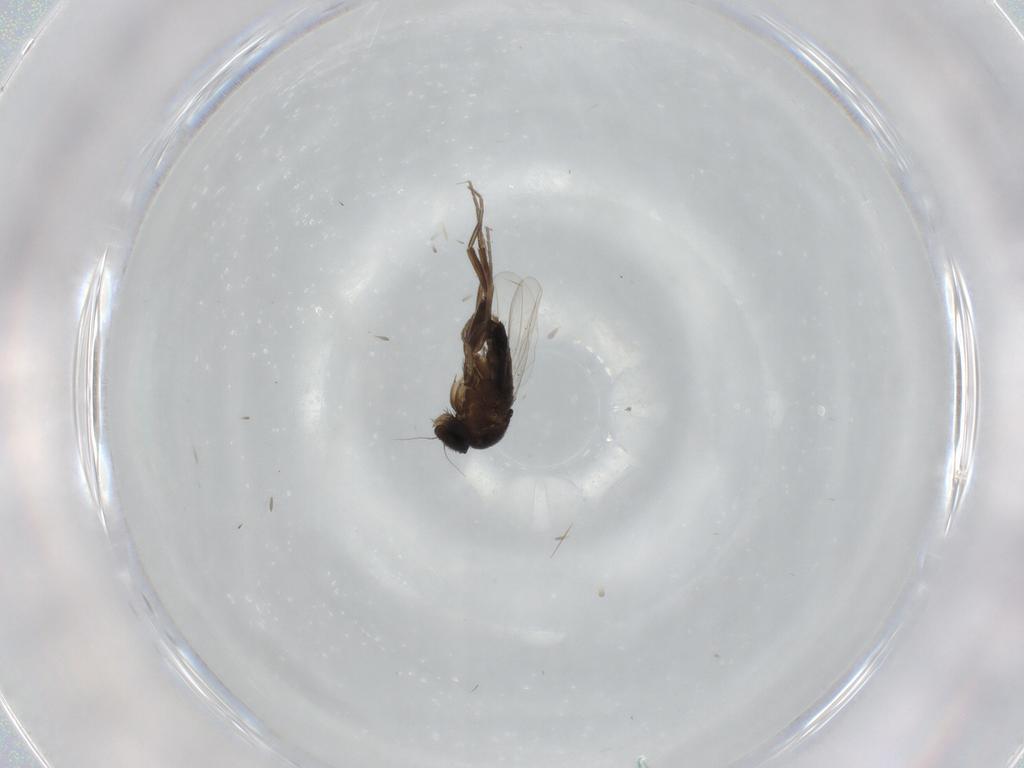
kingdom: Animalia
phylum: Arthropoda
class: Insecta
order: Diptera
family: Phoridae
